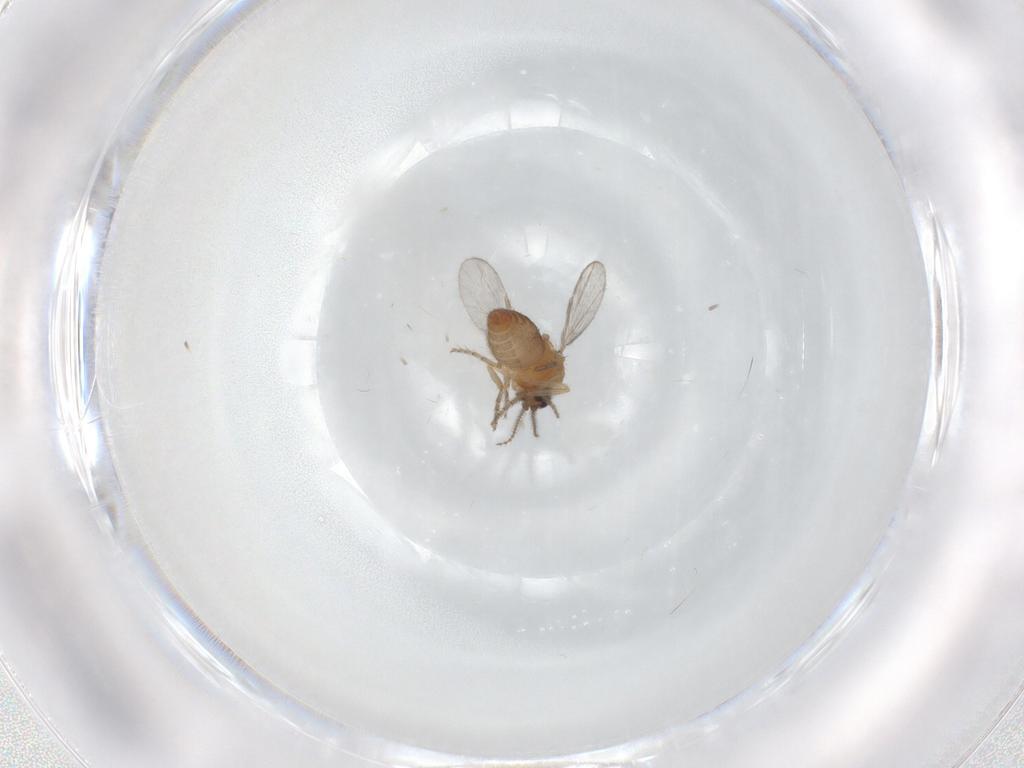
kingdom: Animalia
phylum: Arthropoda
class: Insecta
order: Diptera
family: Ceratopogonidae
